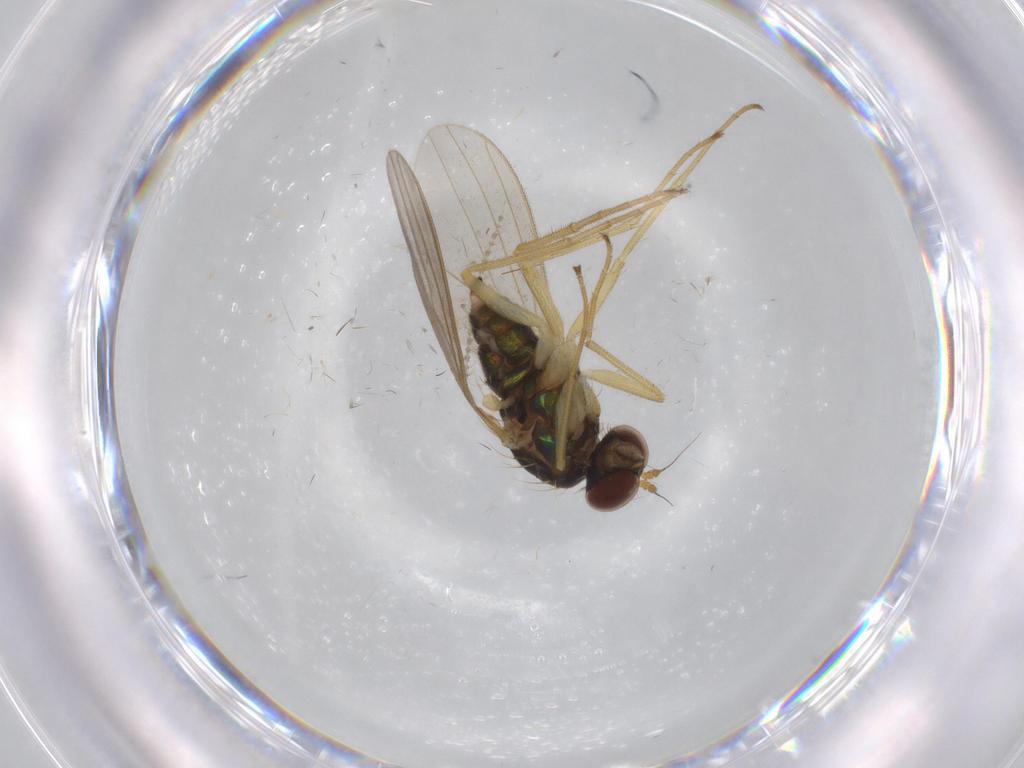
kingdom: Animalia
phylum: Arthropoda
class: Insecta
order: Diptera
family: Dolichopodidae
